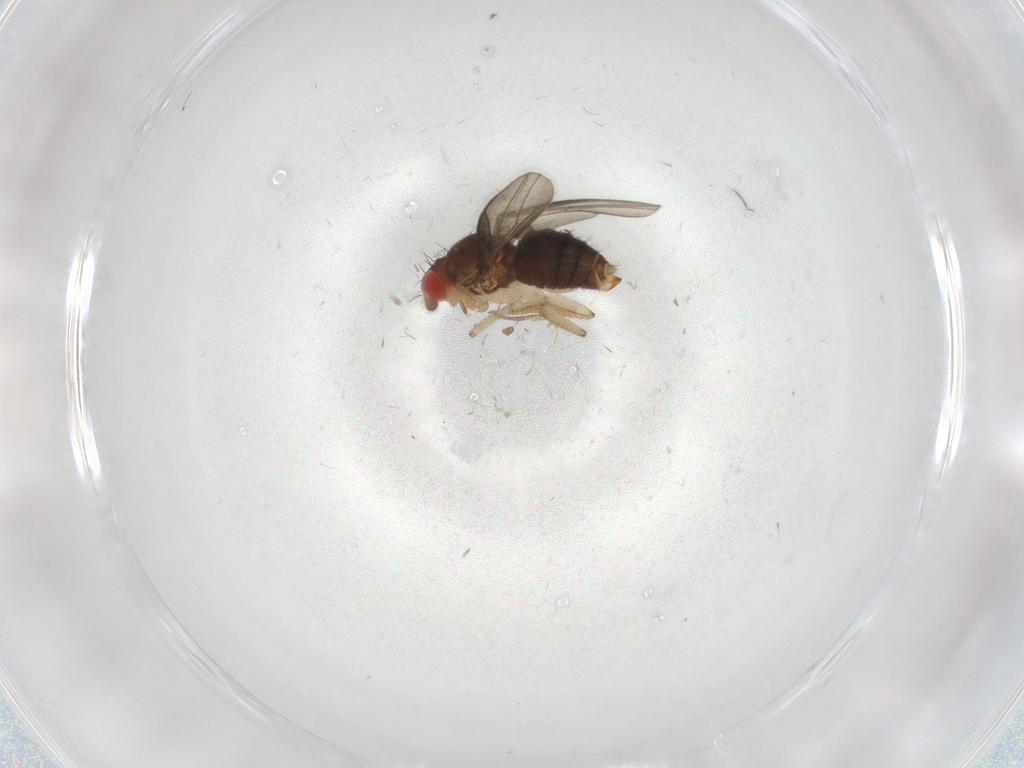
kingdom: Animalia
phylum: Arthropoda
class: Insecta
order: Diptera
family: Drosophilidae
